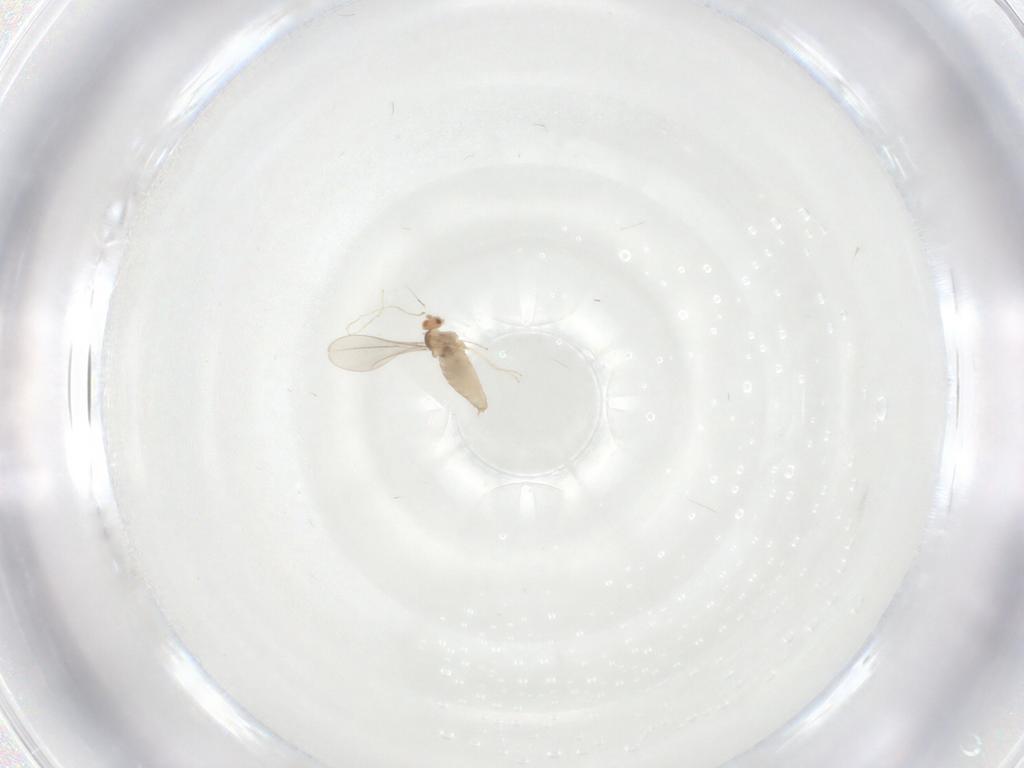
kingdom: Animalia
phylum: Arthropoda
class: Insecta
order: Diptera
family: Cecidomyiidae
